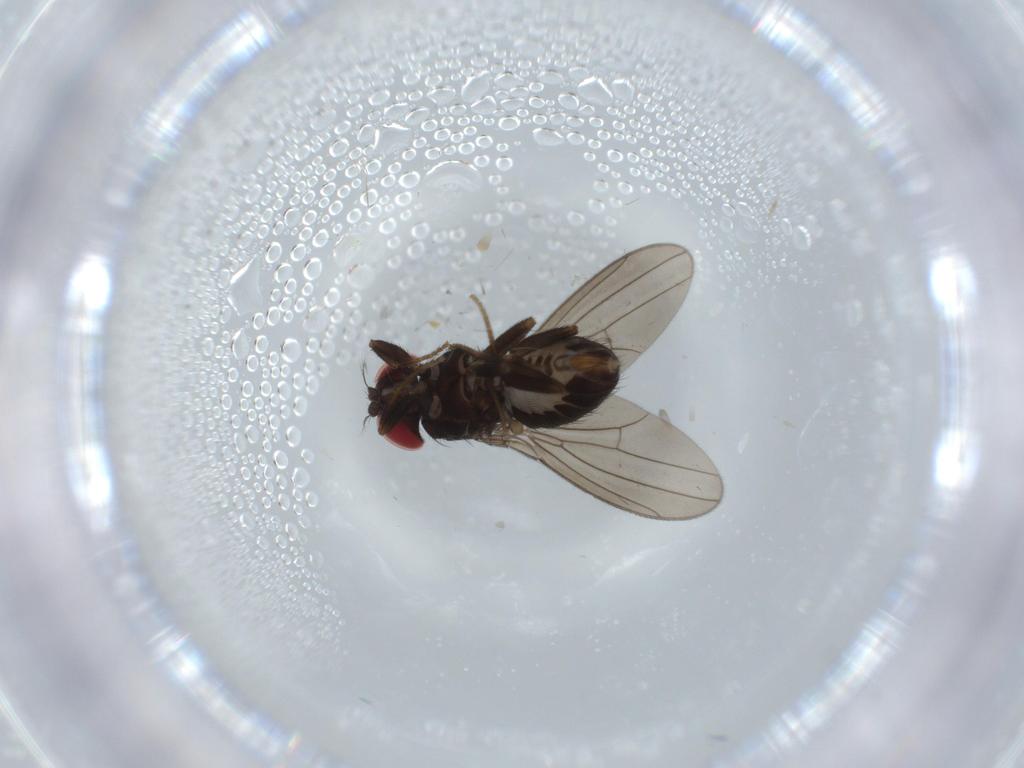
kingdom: Animalia
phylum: Arthropoda
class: Insecta
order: Diptera
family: Drosophilidae
